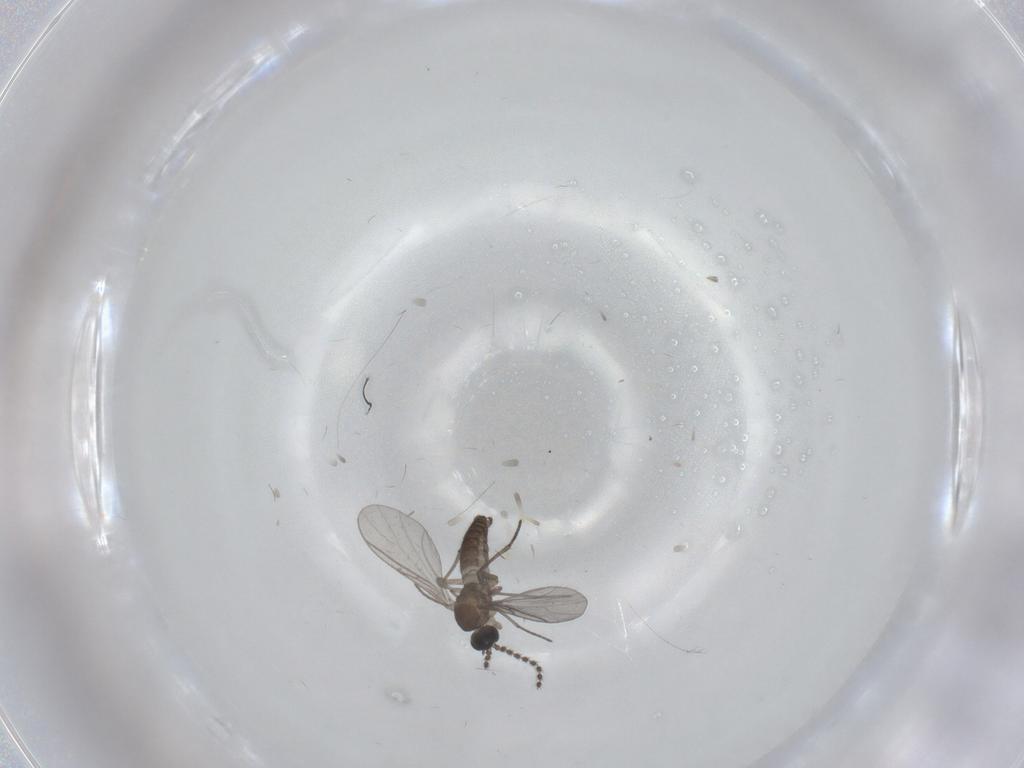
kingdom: Animalia
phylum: Arthropoda
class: Insecta
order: Diptera
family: Sciaridae
